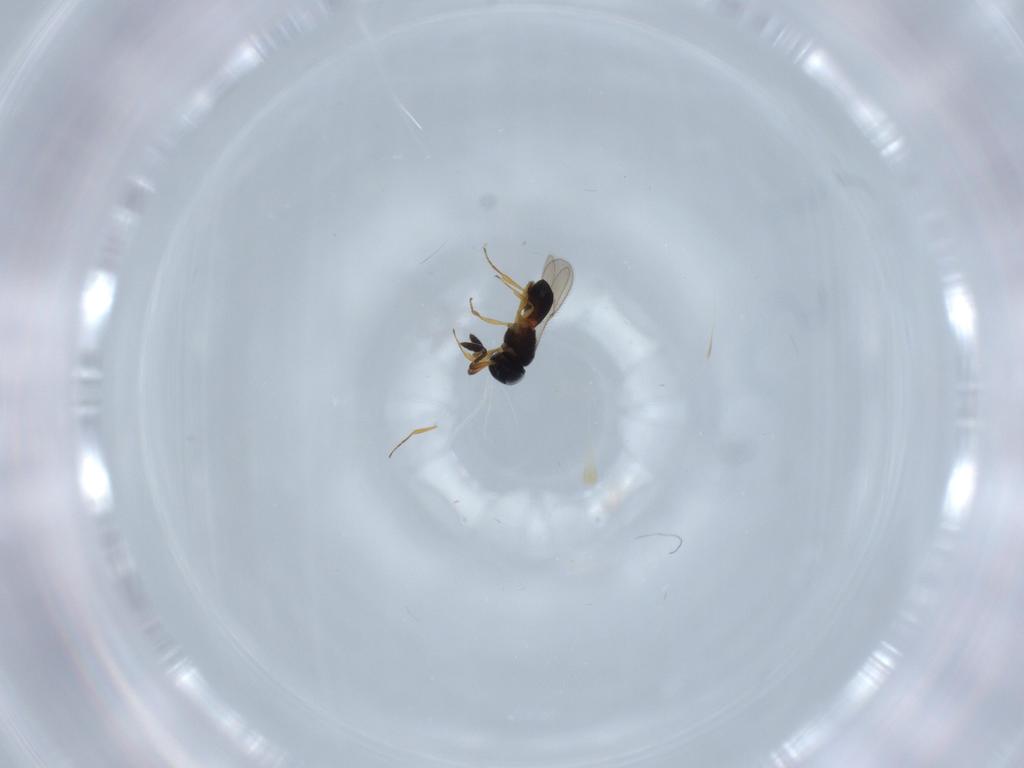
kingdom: Animalia
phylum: Arthropoda
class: Insecta
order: Hymenoptera
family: Scelionidae
